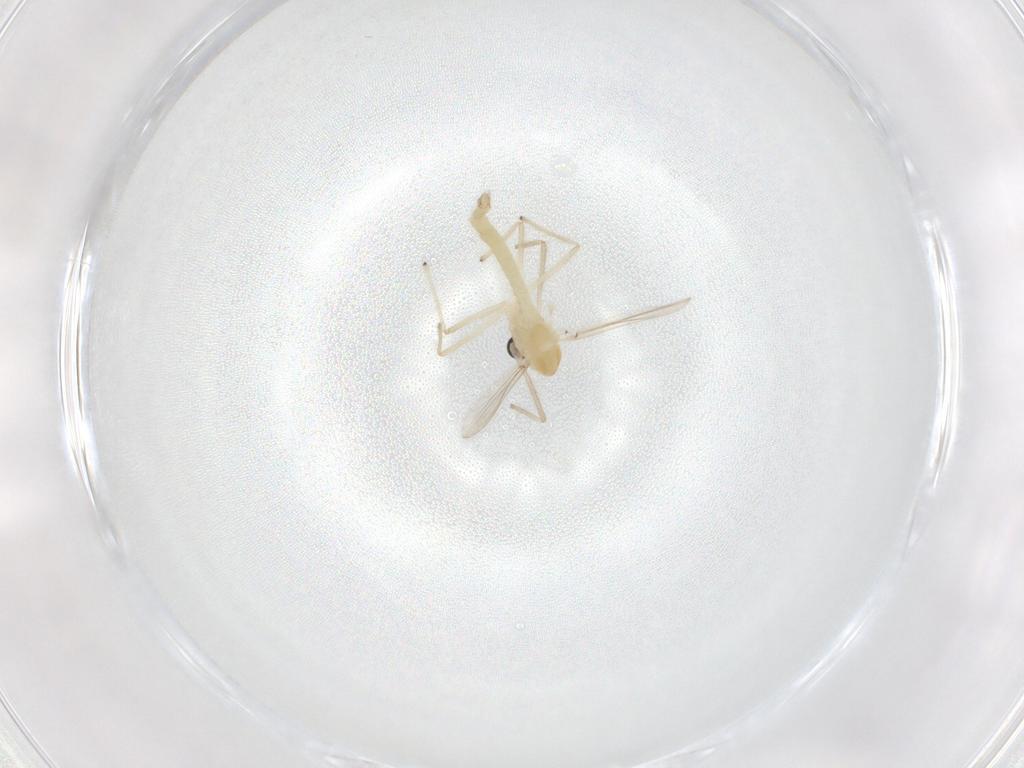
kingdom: Animalia
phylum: Arthropoda
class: Insecta
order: Diptera
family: Chironomidae
